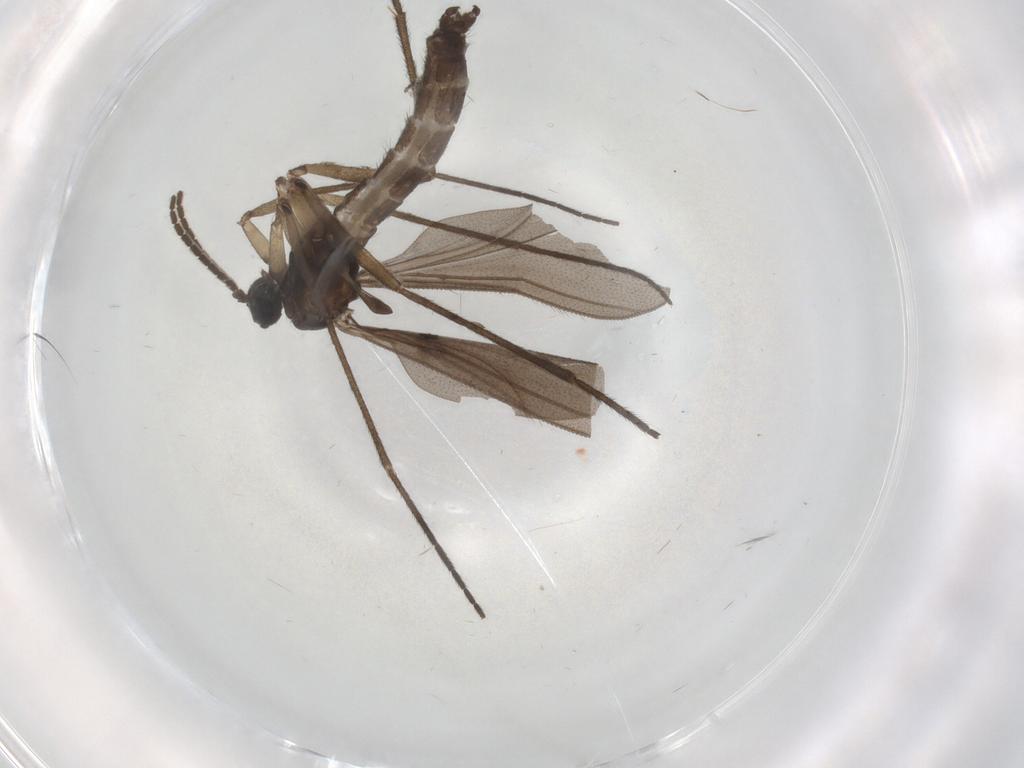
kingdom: Animalia
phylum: Arthropoda
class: Insecta
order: Diptera
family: Chironomidae
